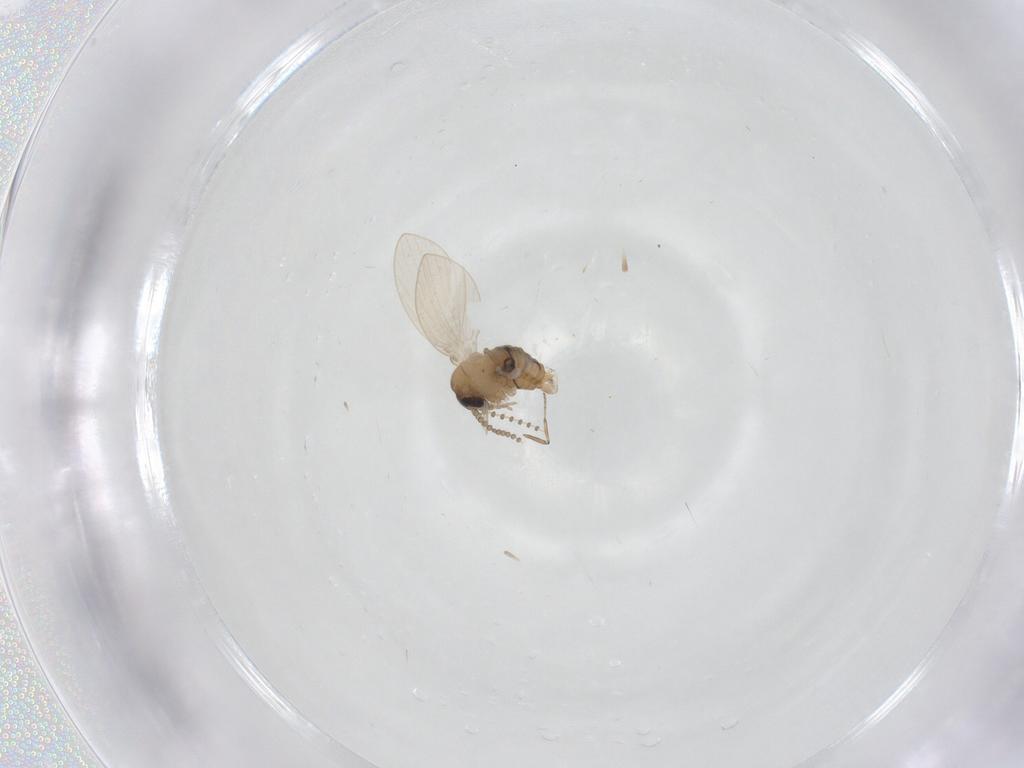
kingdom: Animalia
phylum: Arthropoda
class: Insecta
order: Diptera
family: Psychodidae
